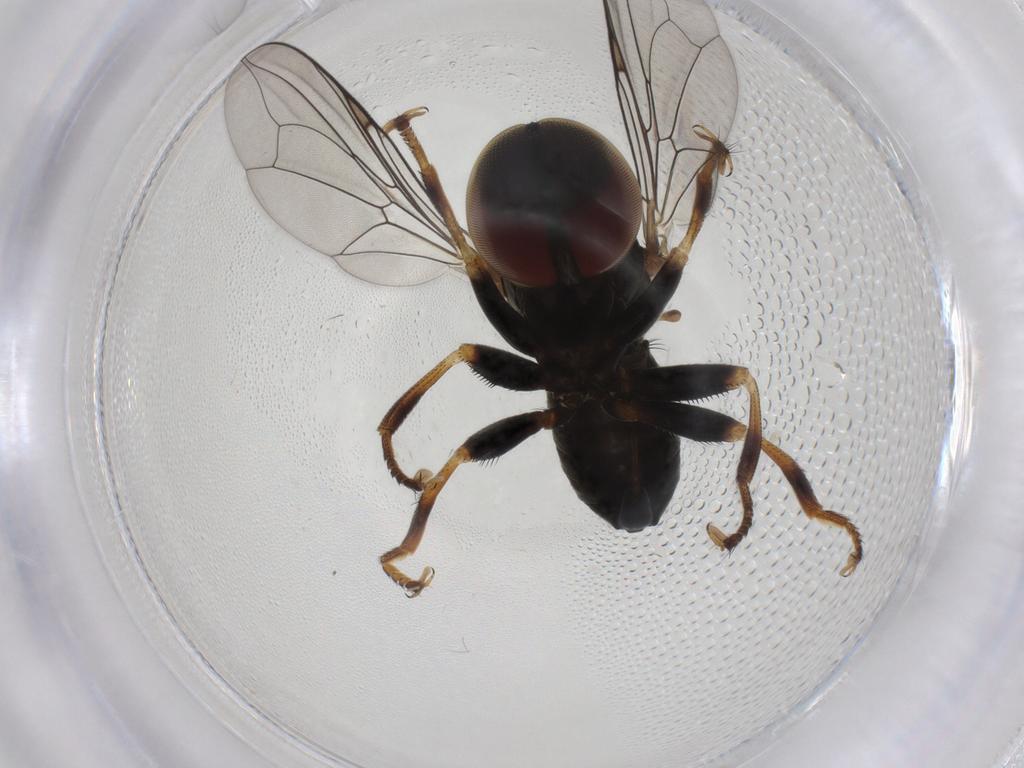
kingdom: Animalia
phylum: Arthropoda
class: Insecta
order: Diptera
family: Pipunculidae
